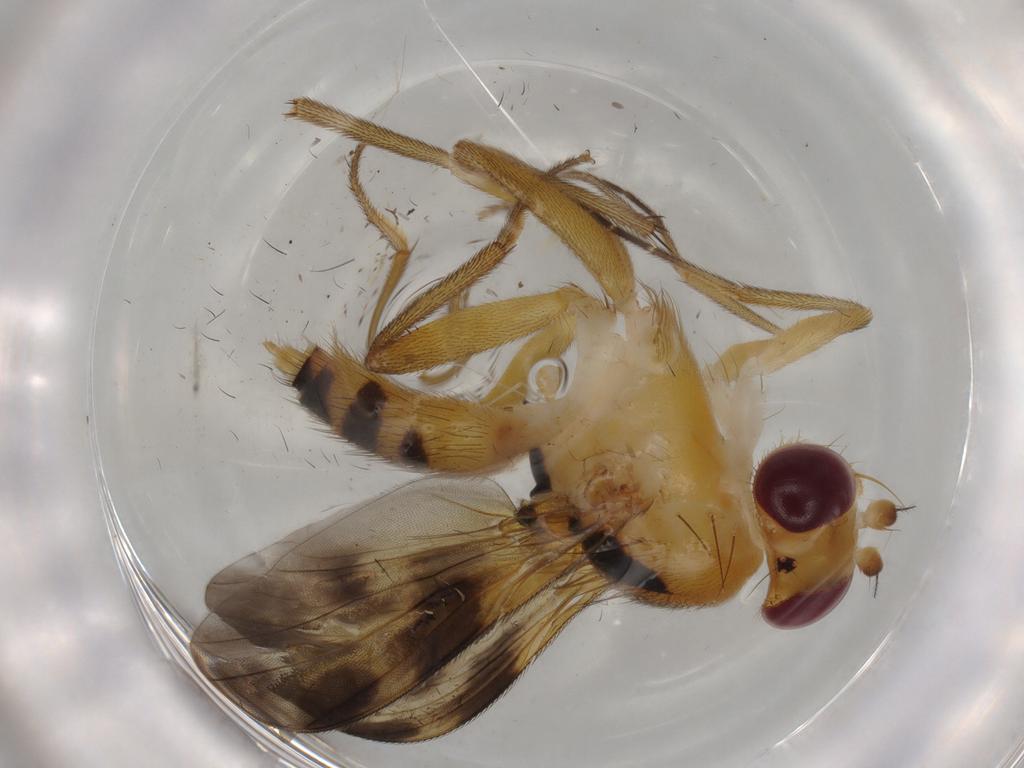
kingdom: Animalia
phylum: Arthropoda
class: Insecta
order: Diptera
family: Clusiidae
